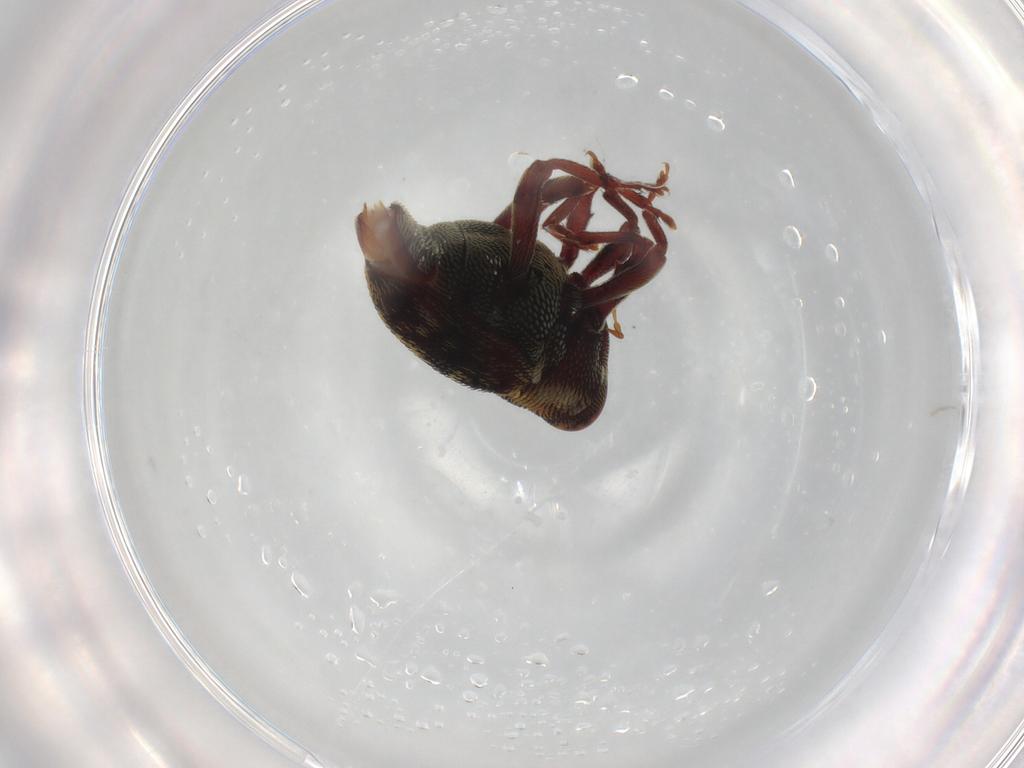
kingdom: Animalia
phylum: Arthropoda
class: Insecta
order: Coleoptera
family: Curculionidae
